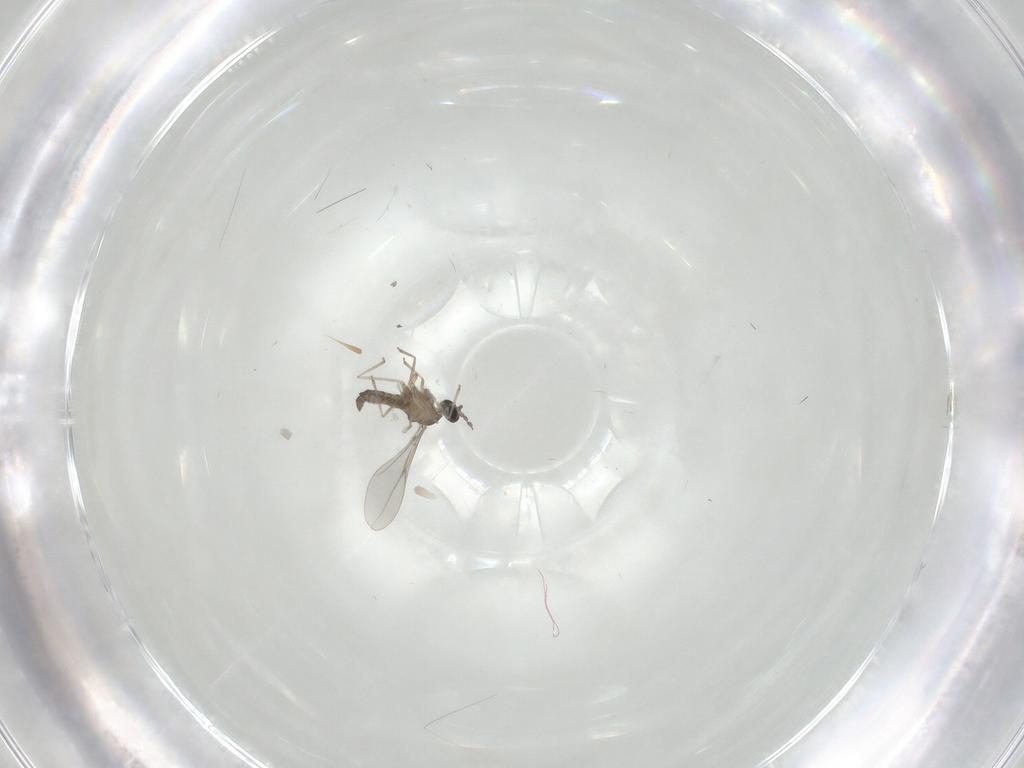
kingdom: Animalia
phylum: Arthropoda
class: Insecta
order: Diptera
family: Cecidomyiidae
